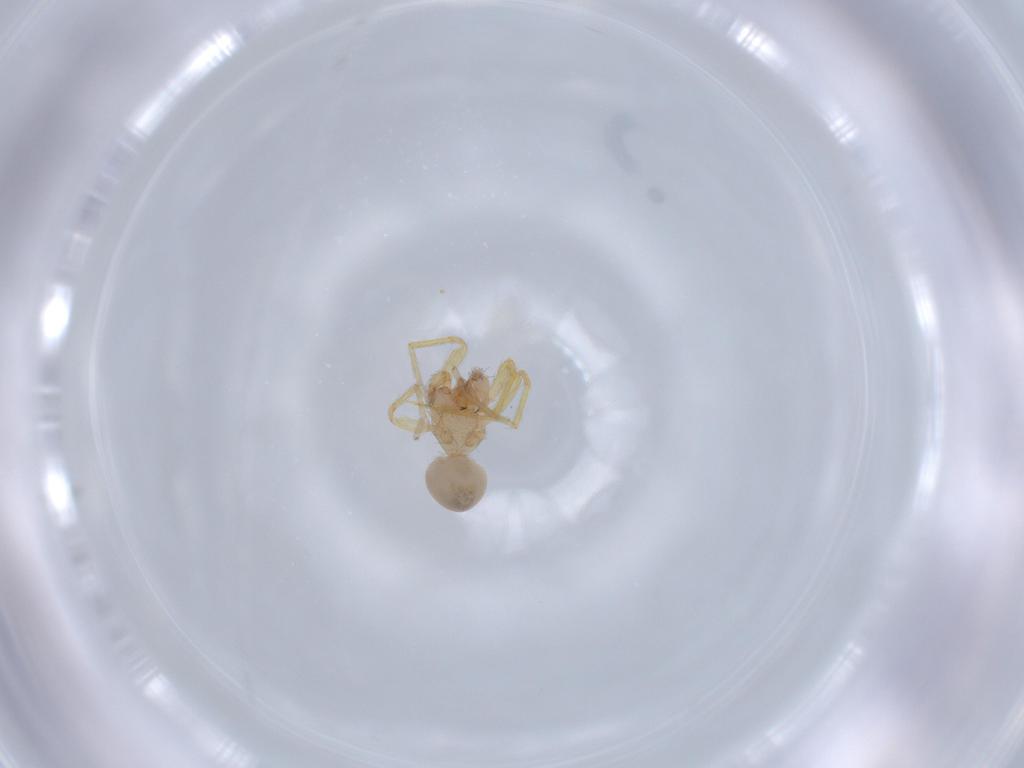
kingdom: Animalia
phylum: Arthropoda
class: Arachnida
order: Araneae
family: Oonopidae
